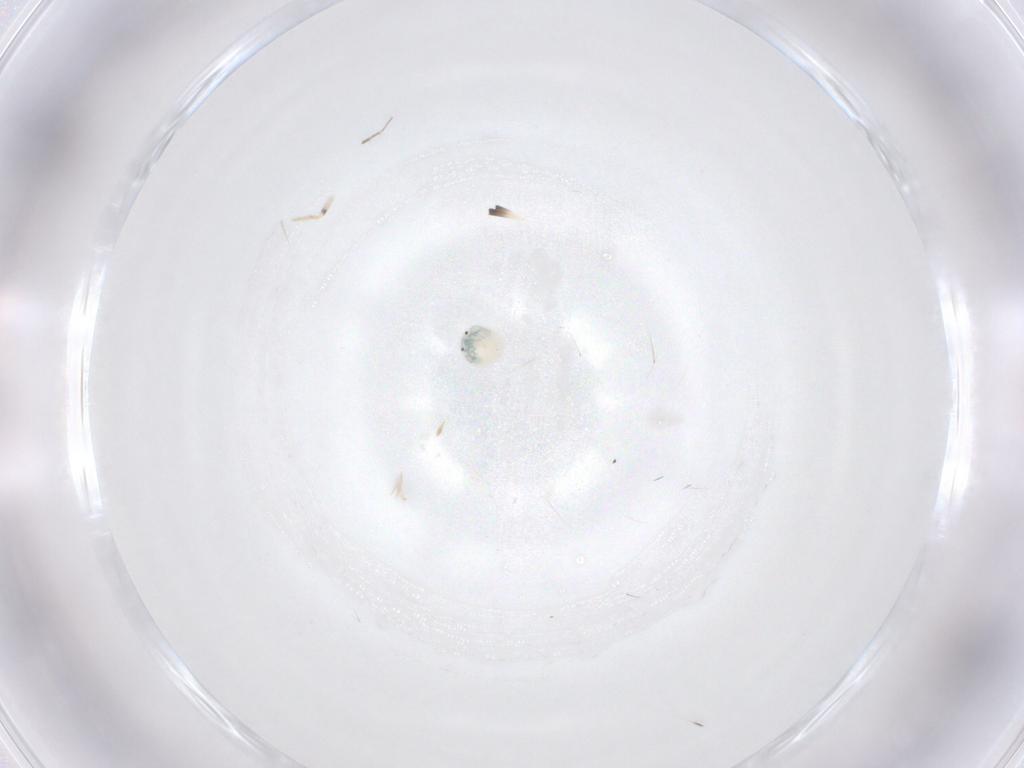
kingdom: Animalia
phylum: Arthropoda
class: Arachnida
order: Trombidiformes
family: Arrenuridae
